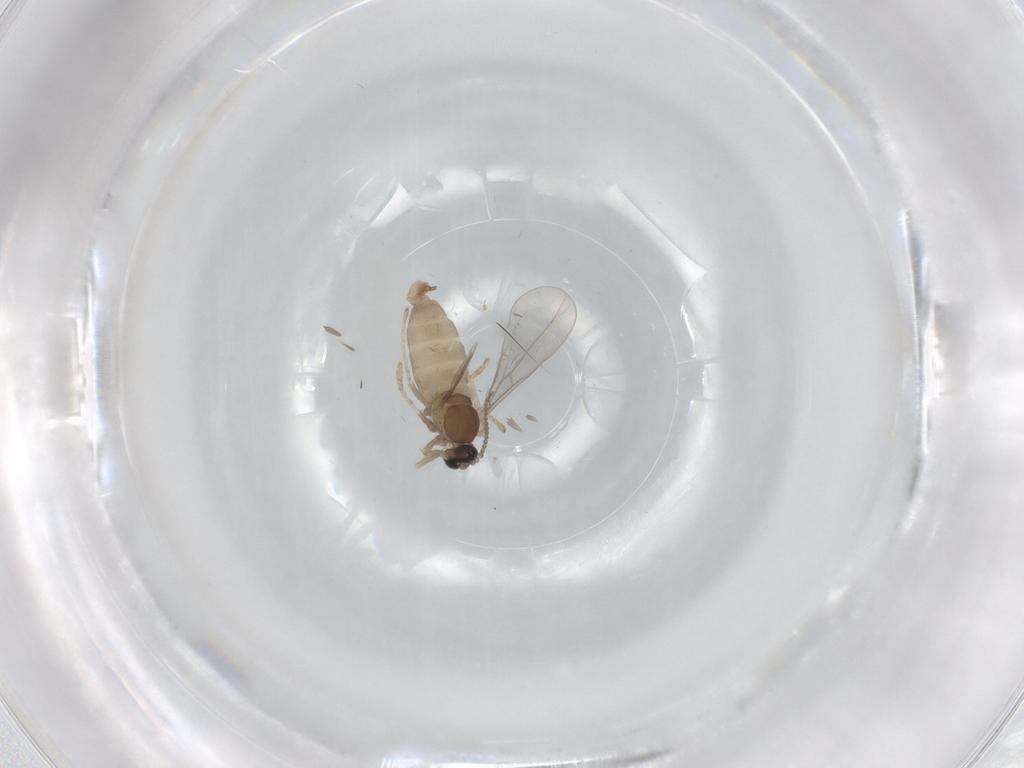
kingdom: Animalia
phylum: Arthropoda
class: Insecta
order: Diptera
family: Cecidomyiidae
